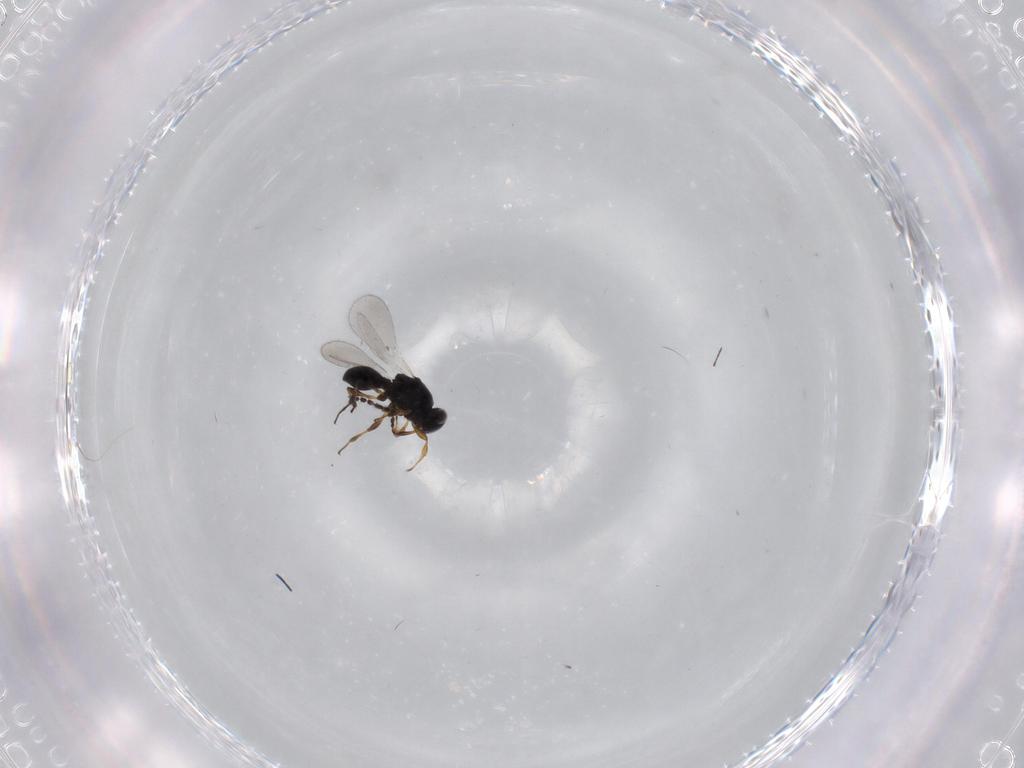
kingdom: Animalia
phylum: Arthropoda
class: Insecta
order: Hymenoptera
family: Platygastridae
